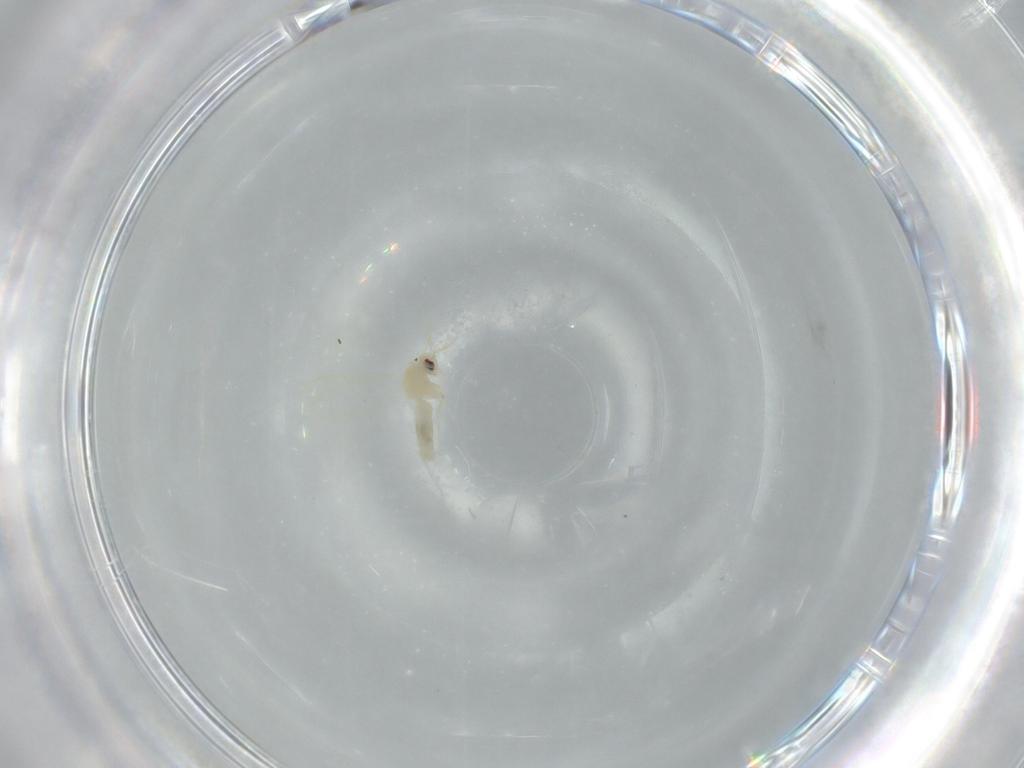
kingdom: Animalia
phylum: Arthropoda
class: Insecta
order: Hemiptera
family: Aleyrodidae
